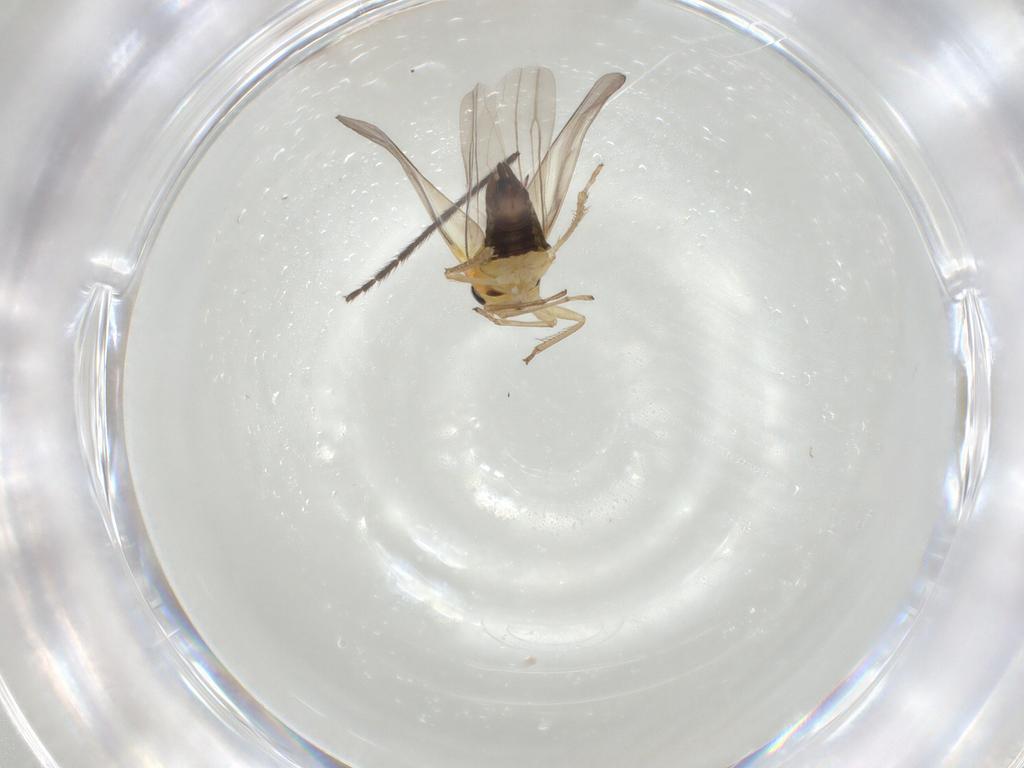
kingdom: Animalia
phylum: Arthropoda
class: Insecta
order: Hemiptera
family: Cicadellidae
